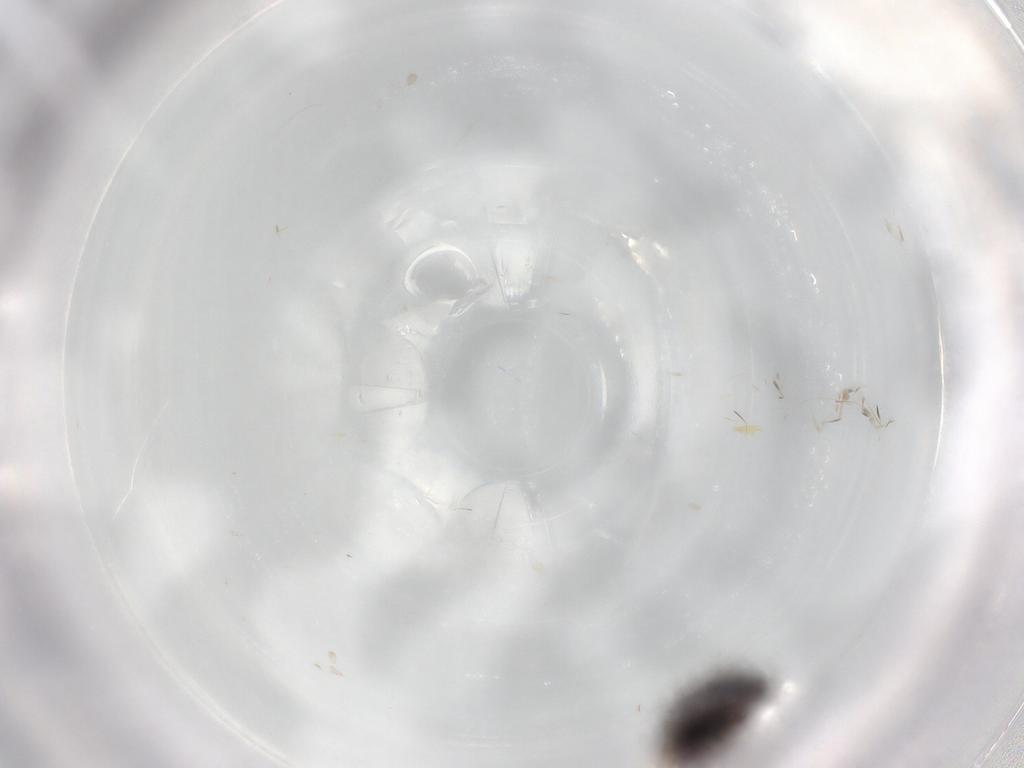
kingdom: Animalia
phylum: Arthropoda
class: Insecta
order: Coleoptera
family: Carabidae
